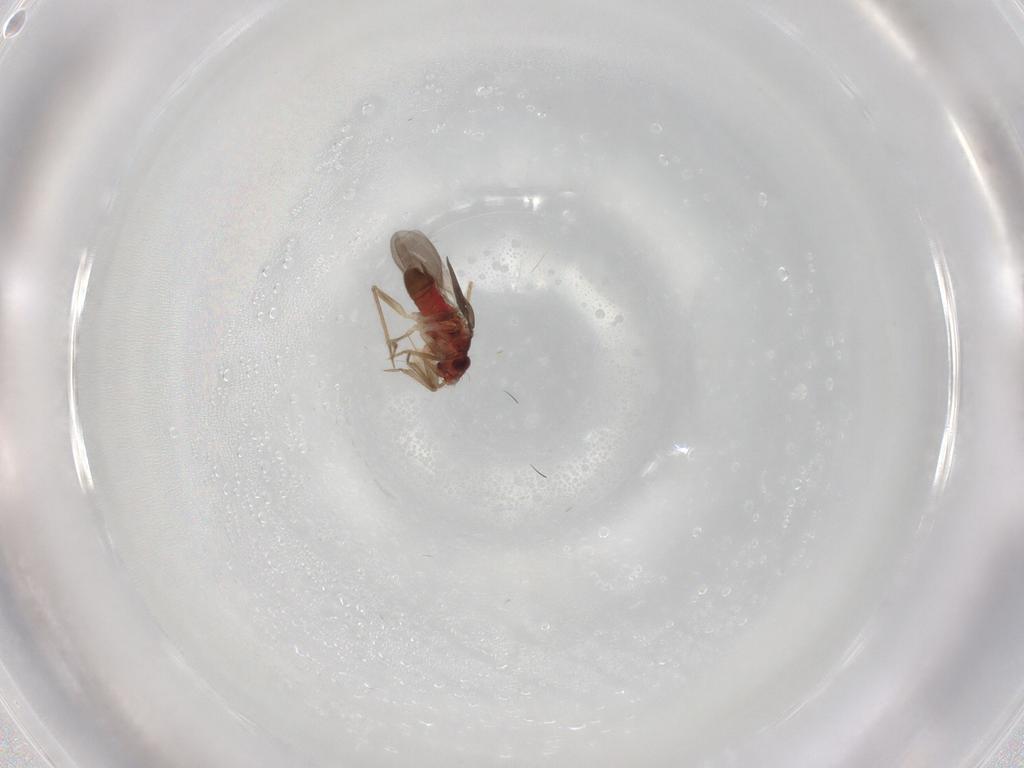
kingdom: Animalia
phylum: Arthropoda
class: Insecta
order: Hemiptera
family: Ceratocombidae
